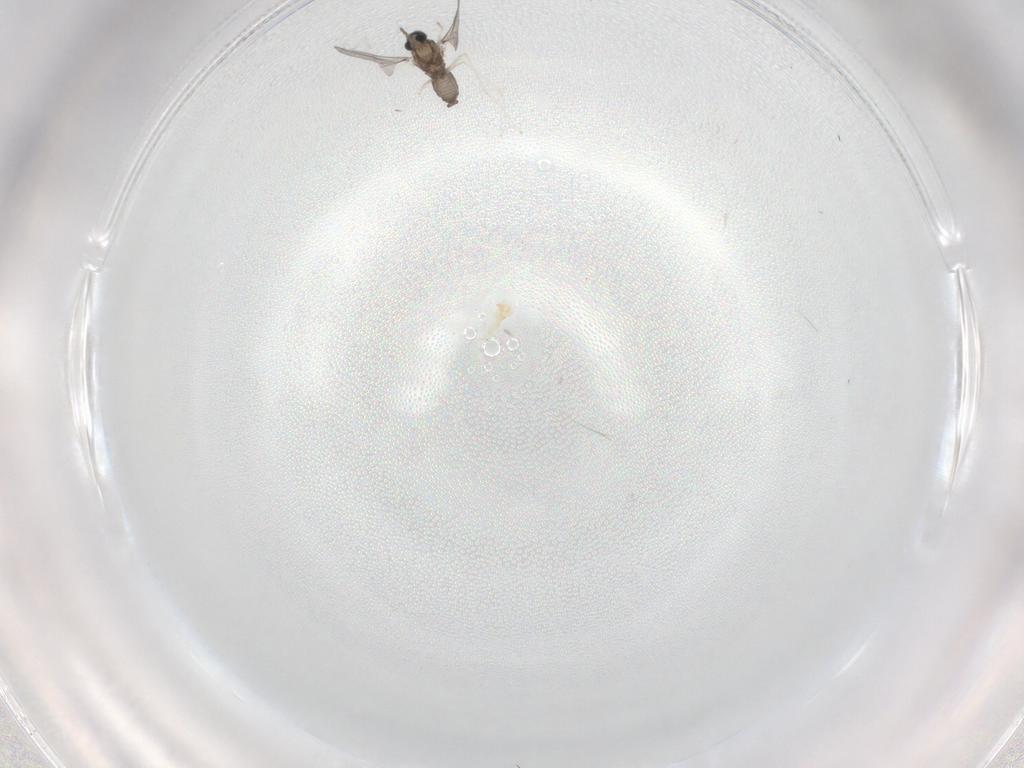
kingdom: Animalia
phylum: Arthropoda
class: Insecta
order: Diptera
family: Cecidomyiidae
